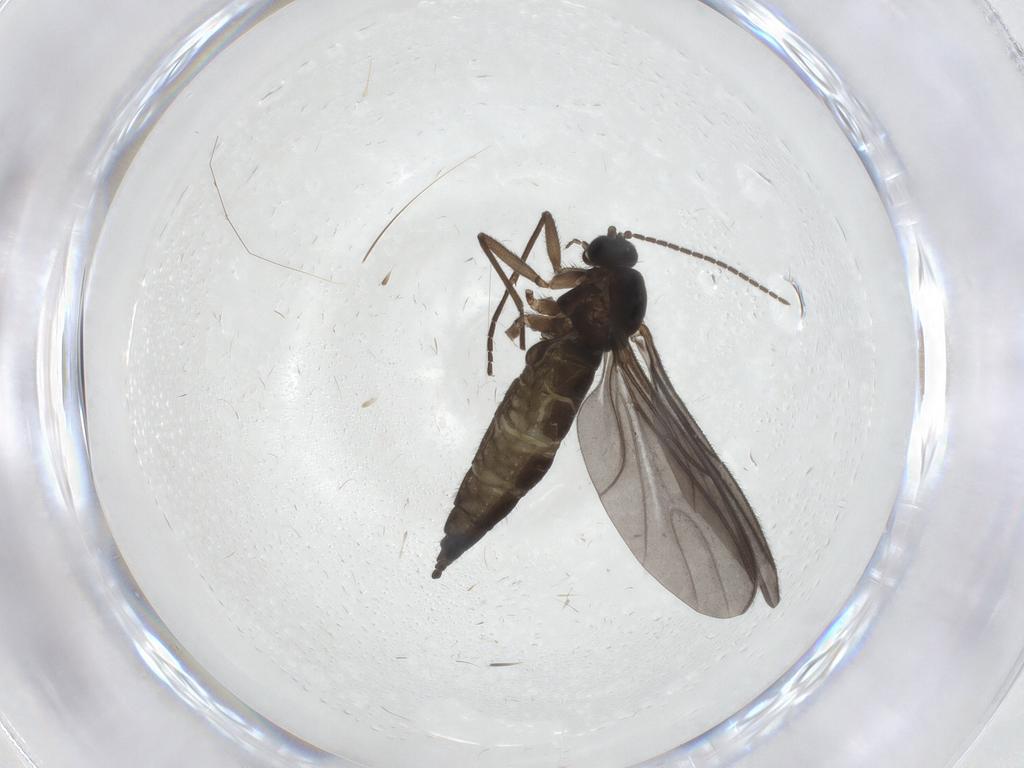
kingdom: Animalia
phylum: Arthropoda
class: Insecta
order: Diptera
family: Sciaridae
